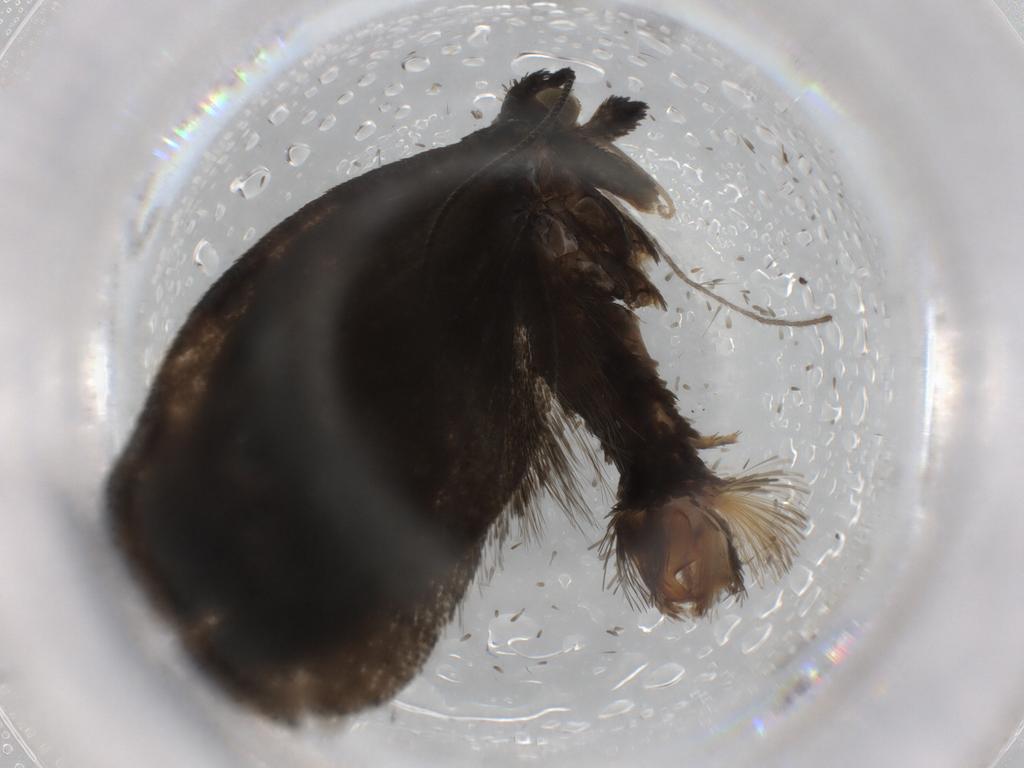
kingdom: Animalia
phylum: Arthropoda
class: Insecta
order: Lepidoptera
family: Tortricidae
